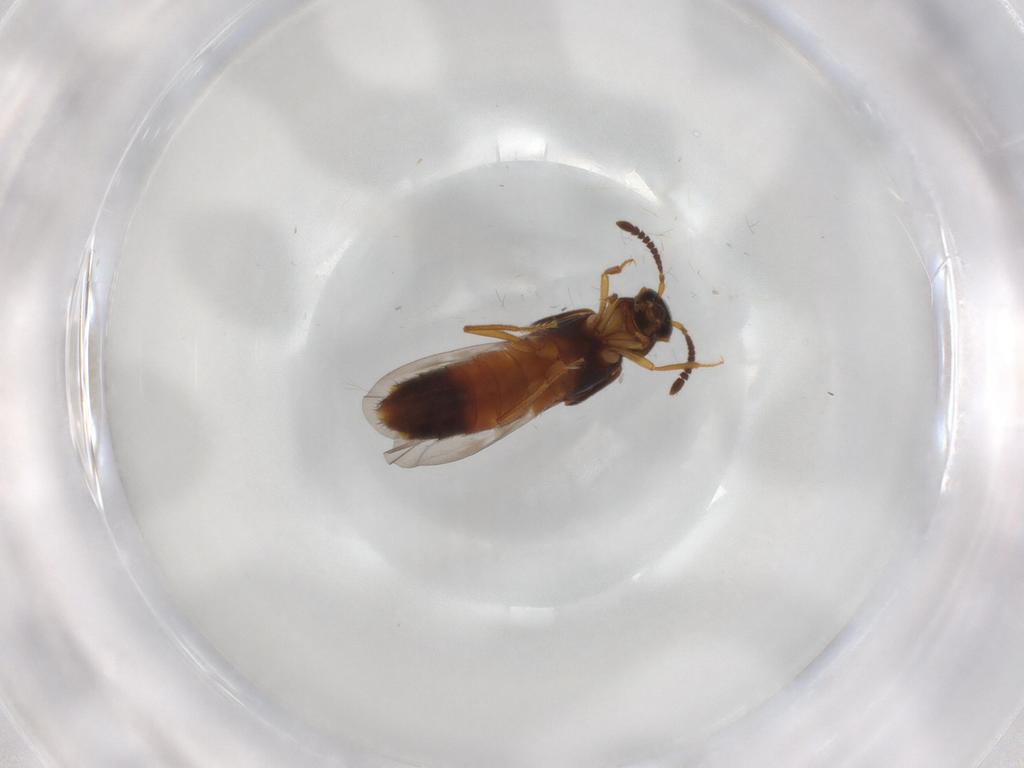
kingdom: Animalia
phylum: Arthropoda
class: Insecta
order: Coleoptera
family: Staphylinidae
